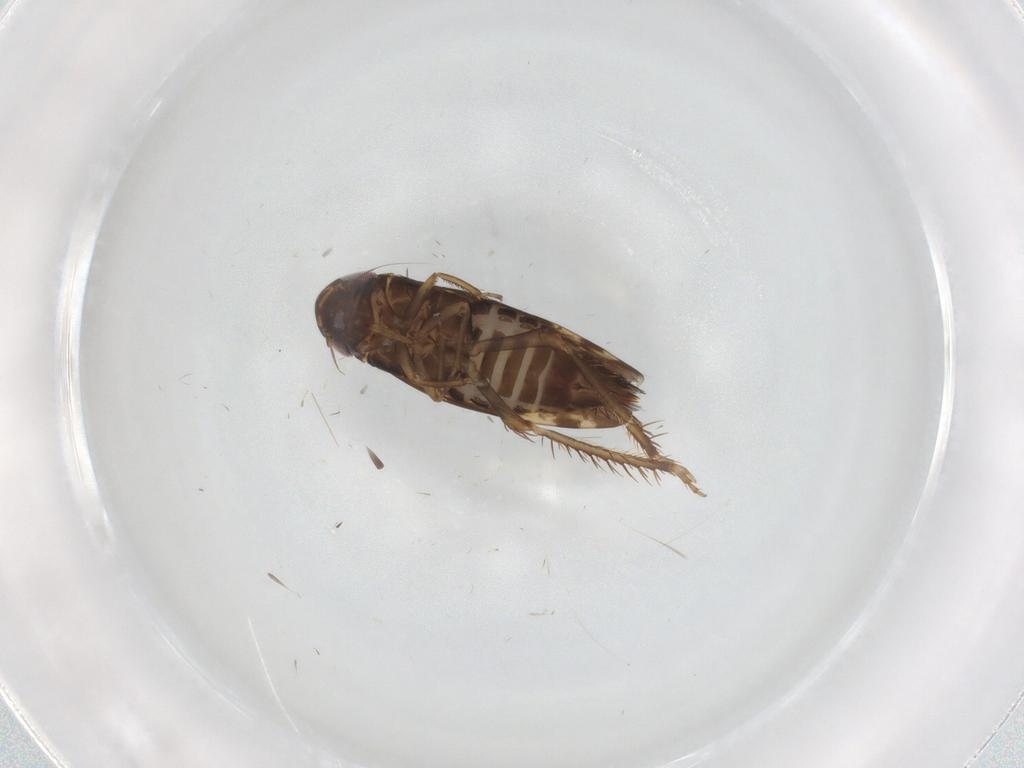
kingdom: Animalia
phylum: Arthropoda
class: Insecta
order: Hemiptera
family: Cicadellidae
